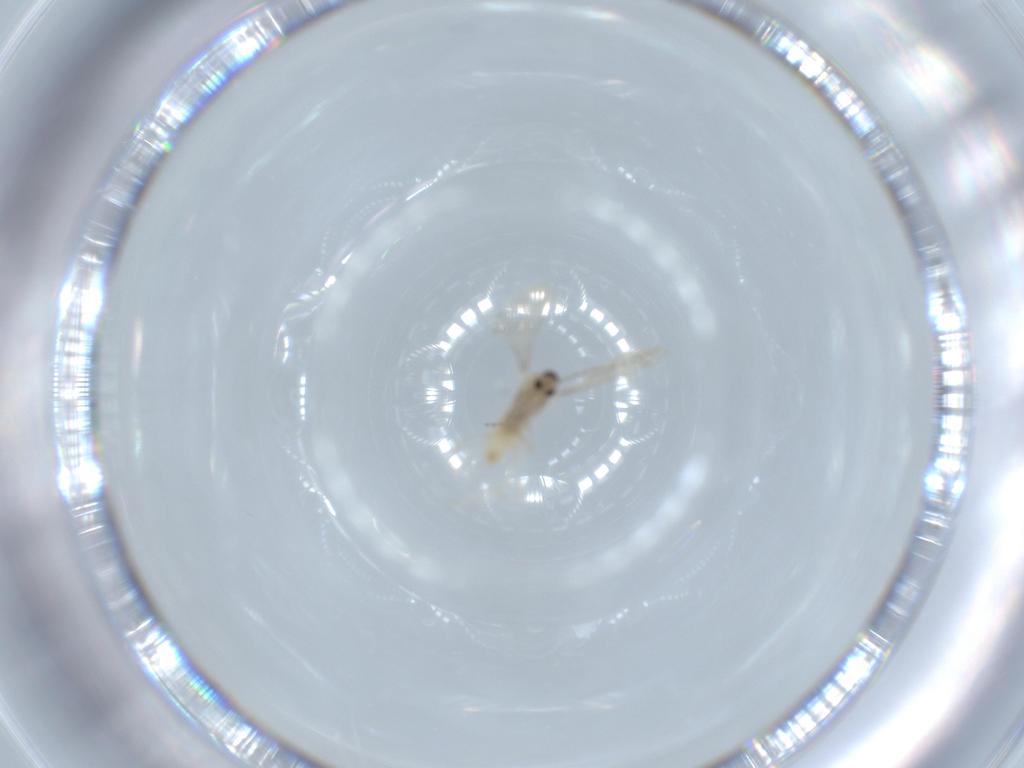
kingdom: Animalia
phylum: Arthropoda
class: Insecta
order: Diptera
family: Cecidomyiidae
